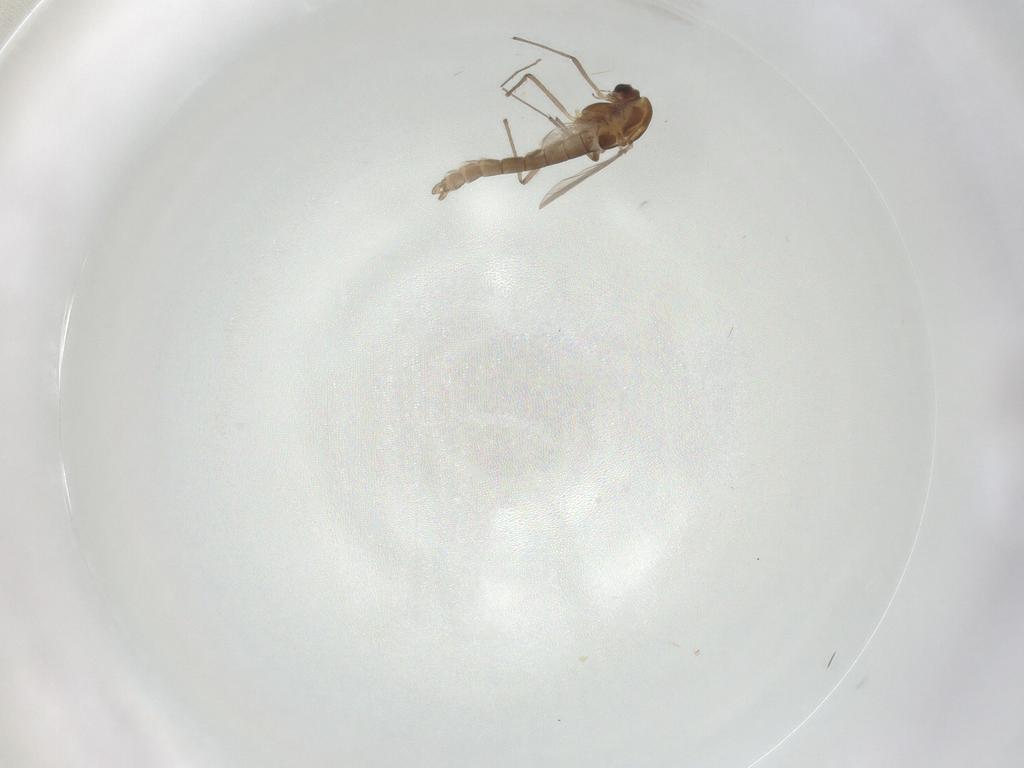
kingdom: Animalia
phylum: Arthropoda
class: Insecta
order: Diptera
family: Chironomidae
